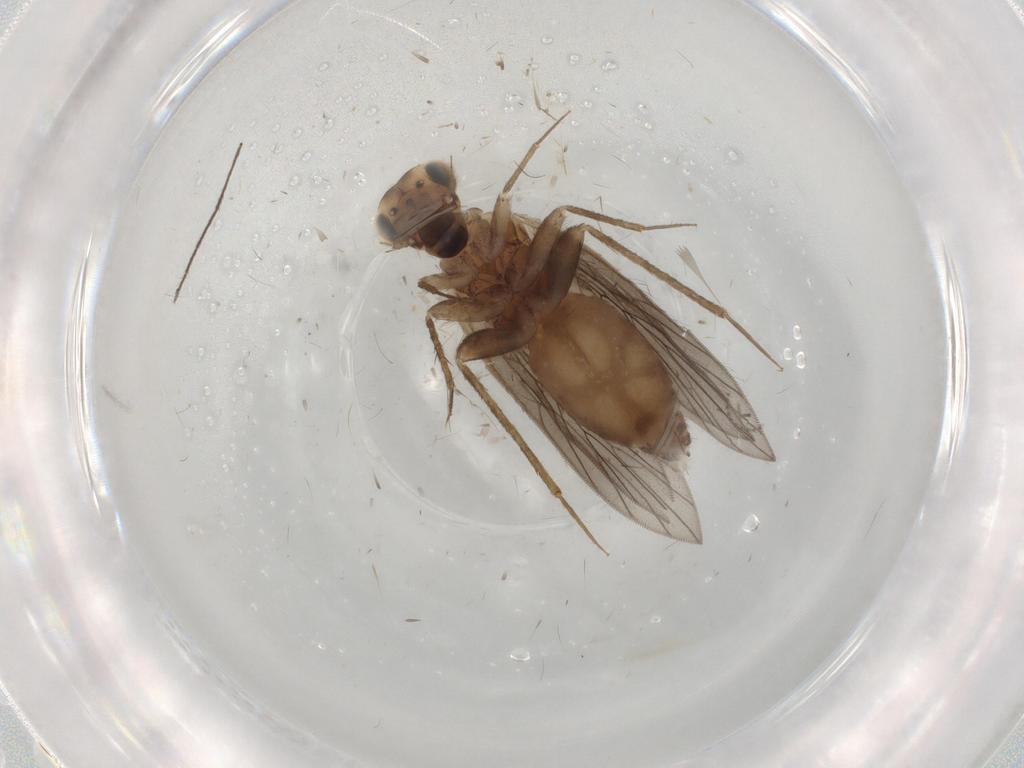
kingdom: Animalia
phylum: Arthropoda
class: Insecta
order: Psocodea
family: Lepidopsocidae
